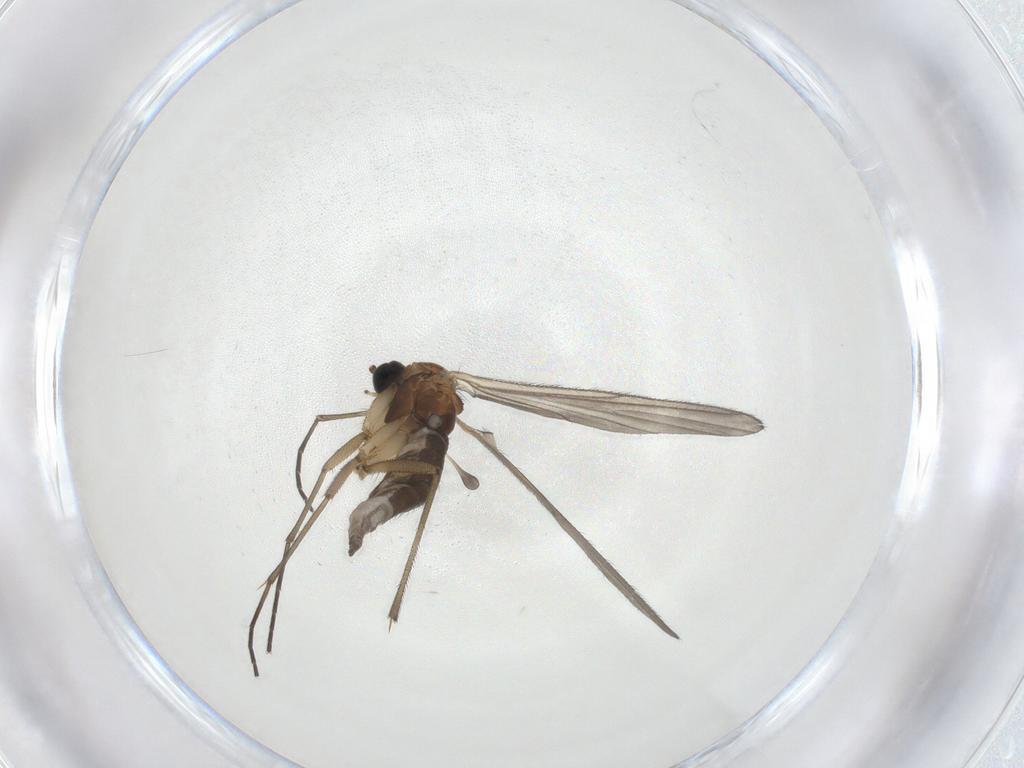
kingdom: Animalia
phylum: Arthropoda
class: Insecta
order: Diptera
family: Sciaridae
